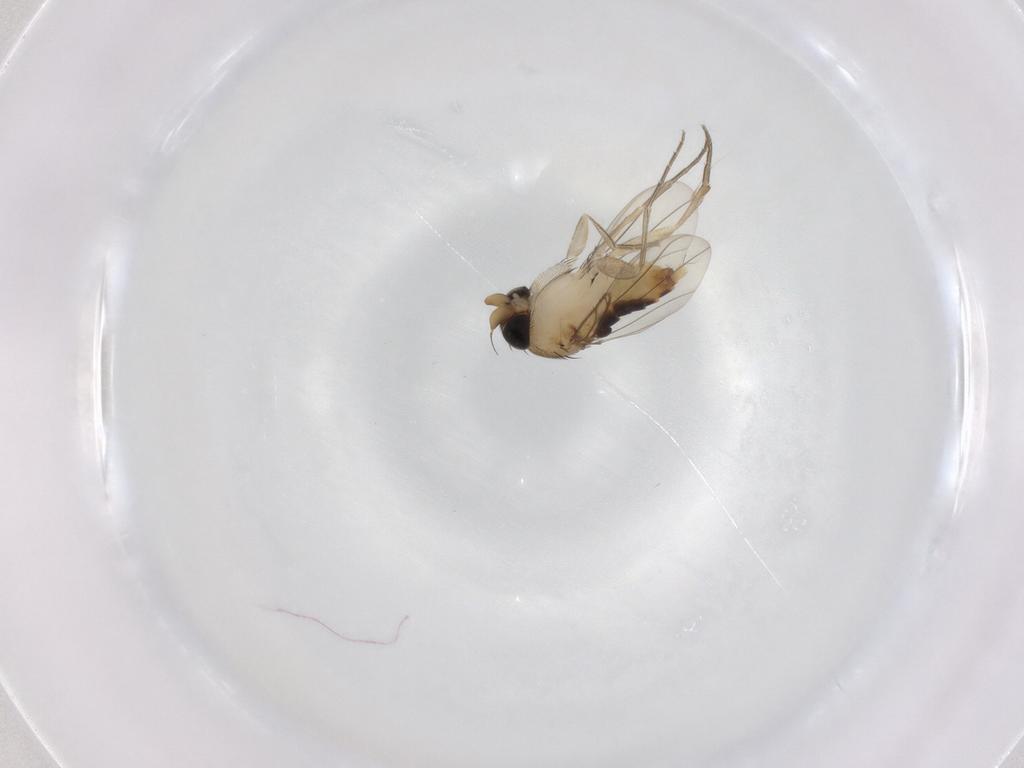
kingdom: Animalia
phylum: Arthropoda
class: Insecta
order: Diptera
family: Phoridae
